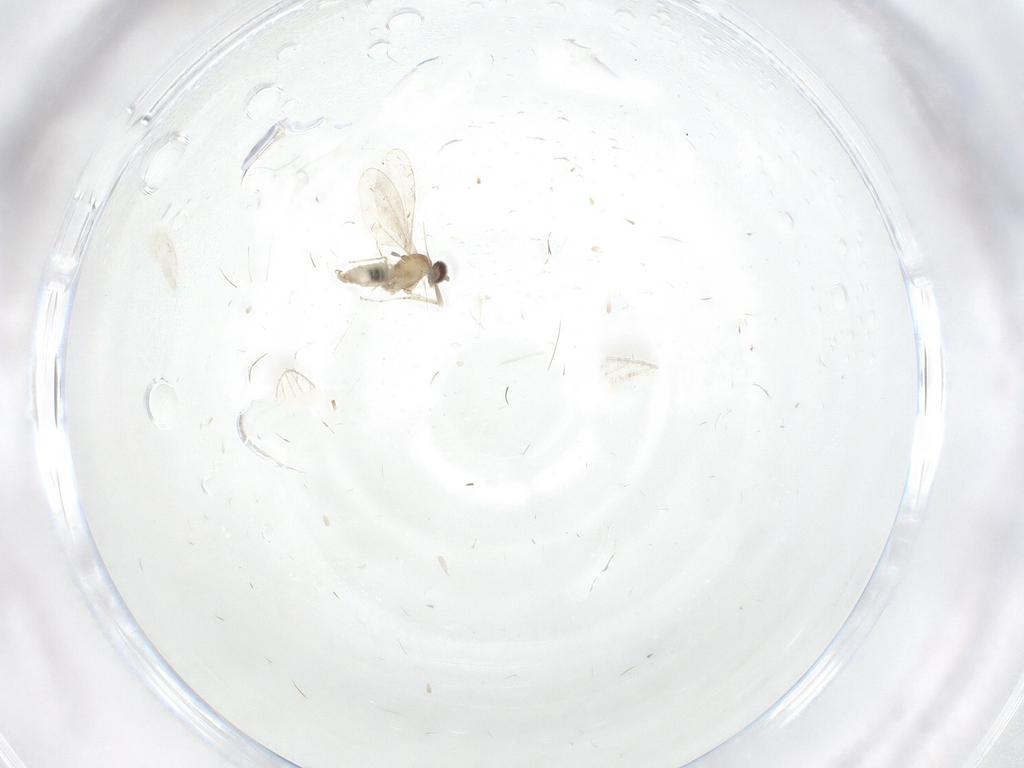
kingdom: Animalia
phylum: Arthropoda
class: Insecta
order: Diptera
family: Cecidomyiidae
